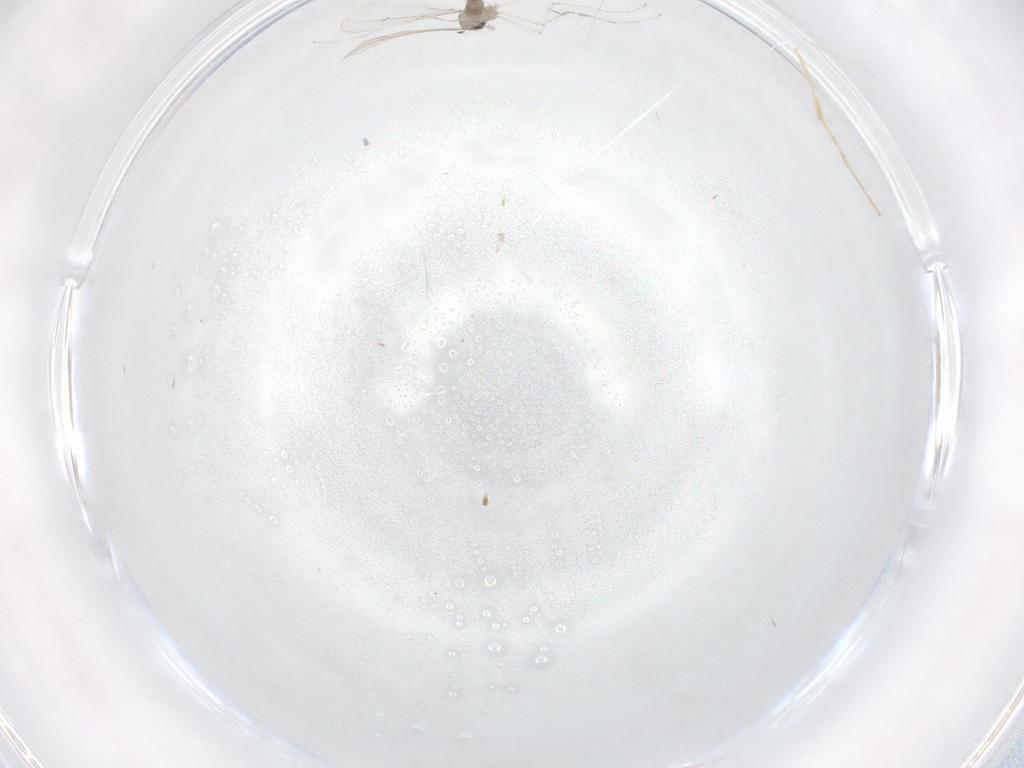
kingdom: Animalia
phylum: Arthropoda
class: Insecta
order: Diptera
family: Cecidomyiidae
